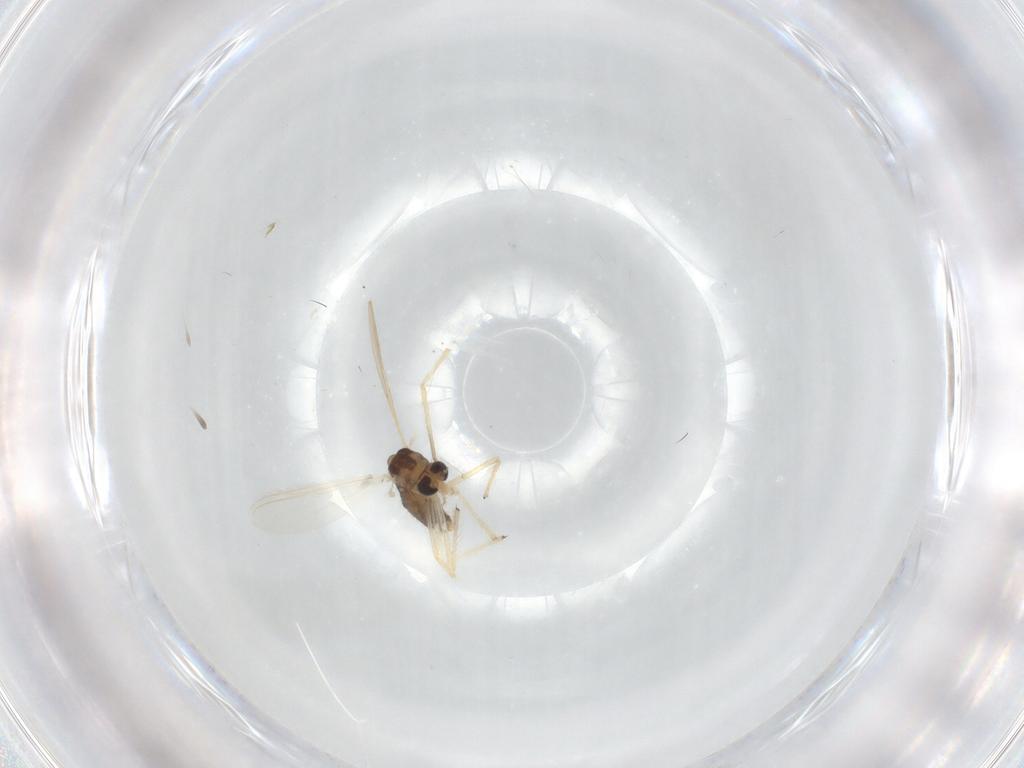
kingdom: Animalia
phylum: Arthropoda
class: Insecta
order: Diptera
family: Chironomidae
